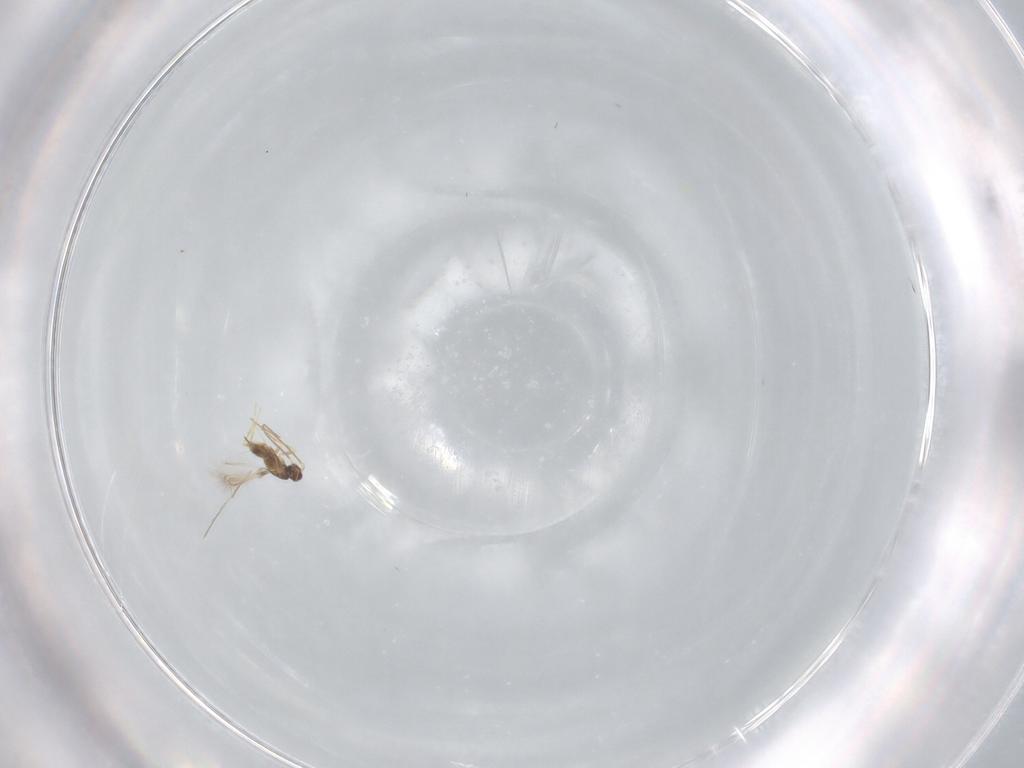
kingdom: Animalia
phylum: Arthropoda
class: Insecta
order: Hymenoptera
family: Mymaridae
